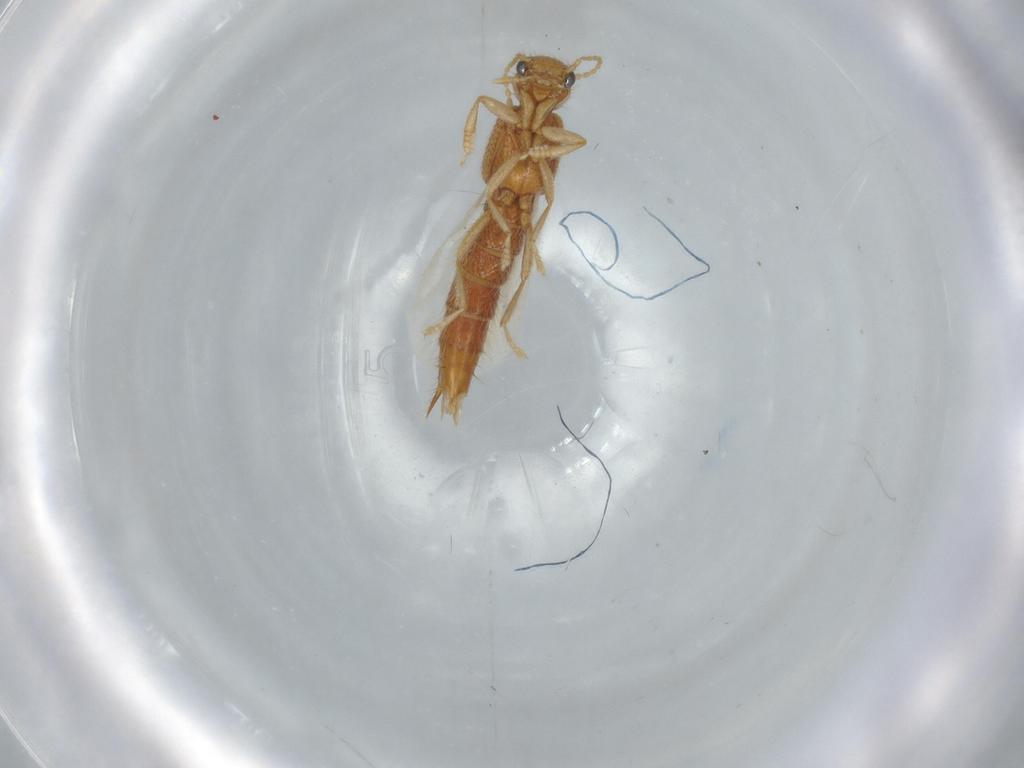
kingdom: Animalia
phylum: Arthropoda
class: Insecta
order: Coleoptera
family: Staphylinidae
